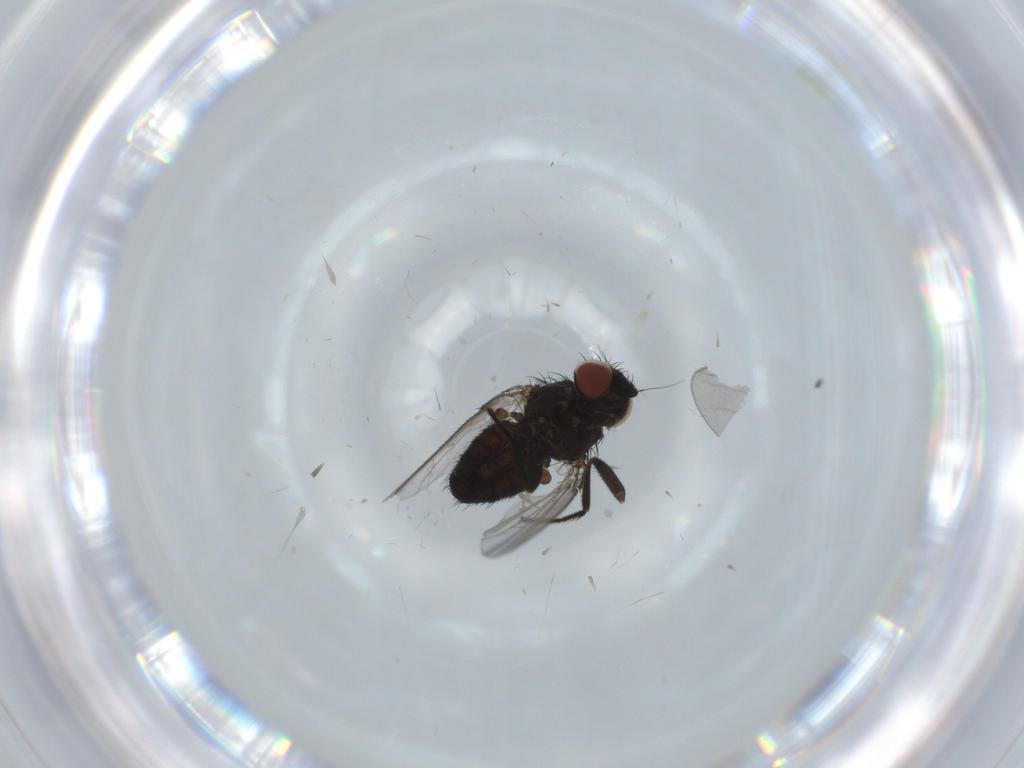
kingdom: Animalia
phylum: Arthropoda
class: Insecta
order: Diptera
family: Milichiidae
